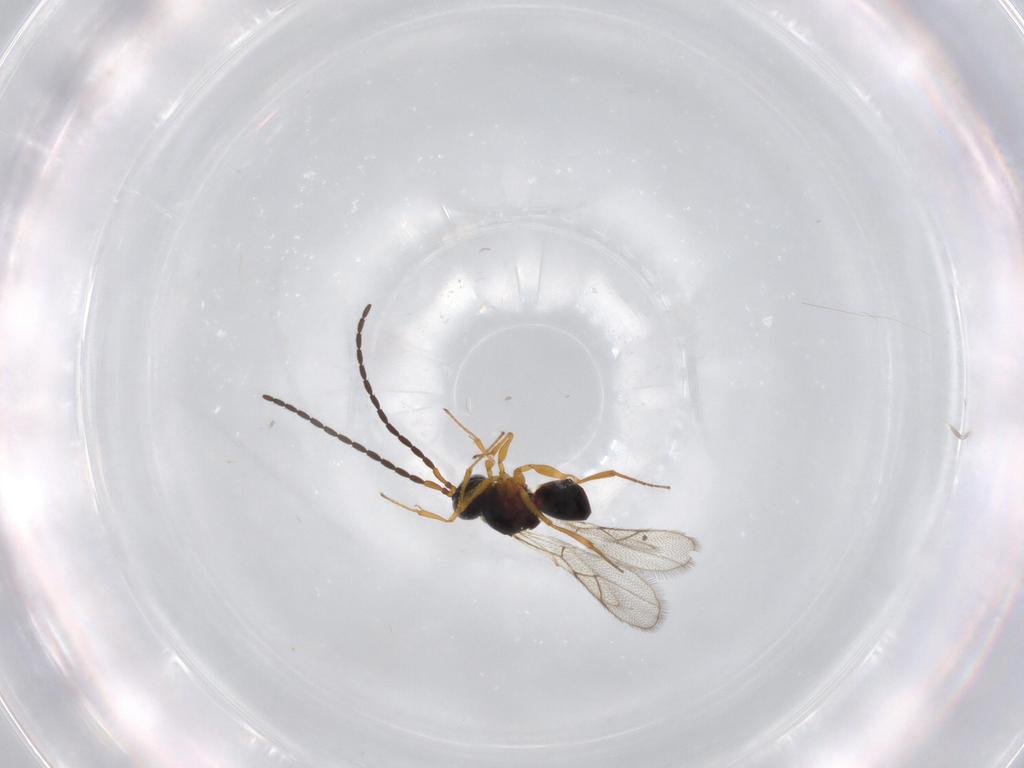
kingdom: Animalia
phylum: Arthropoda
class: Insecta
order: Hymenoptera
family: Figitidae
